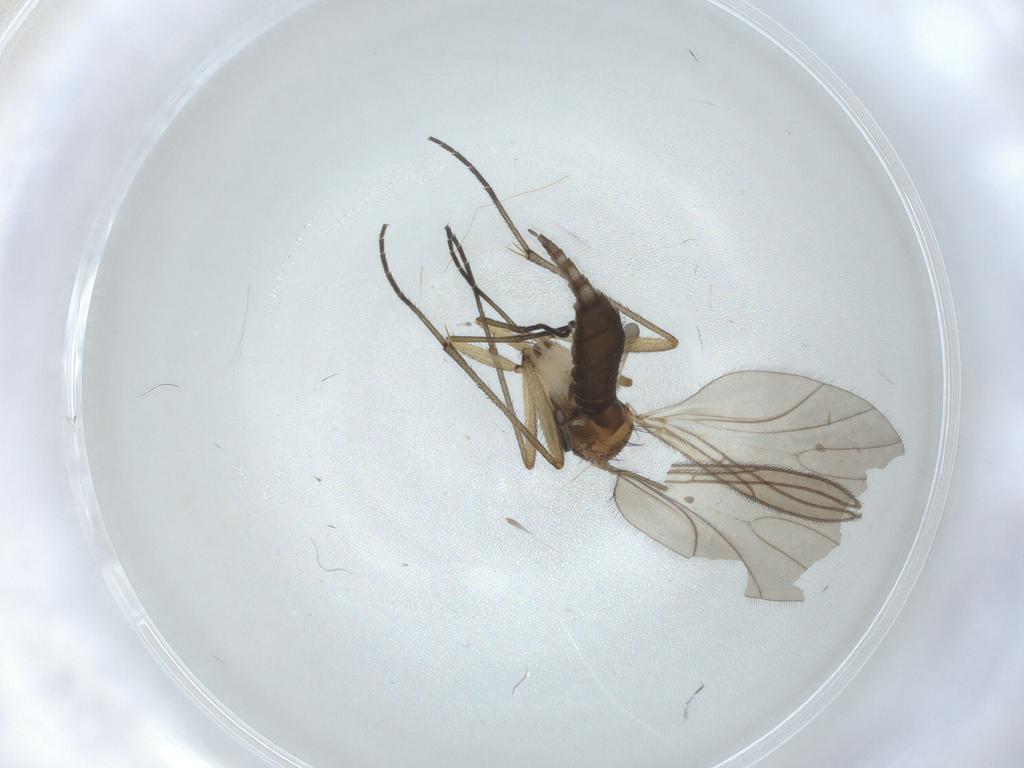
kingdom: Animalia
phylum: Arthropoda
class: Insecta
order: Diptera
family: Sciaridae
